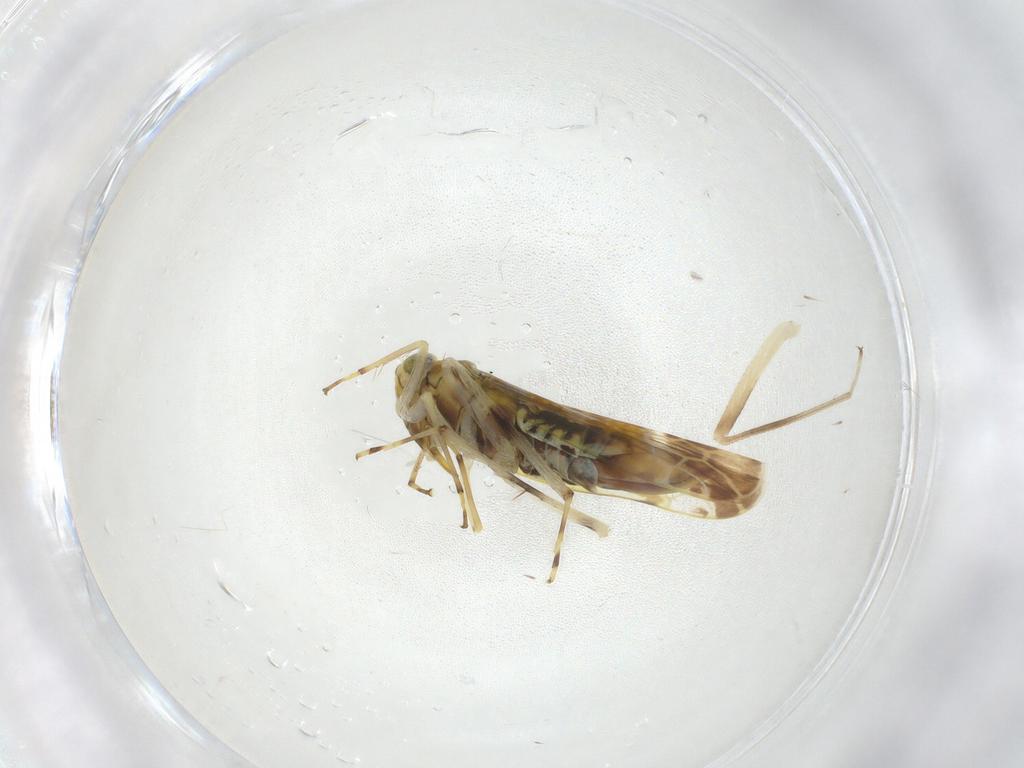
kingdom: Animalia
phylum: Arthropoda
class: Insecta
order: Hemiptera
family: Cicadellidae
